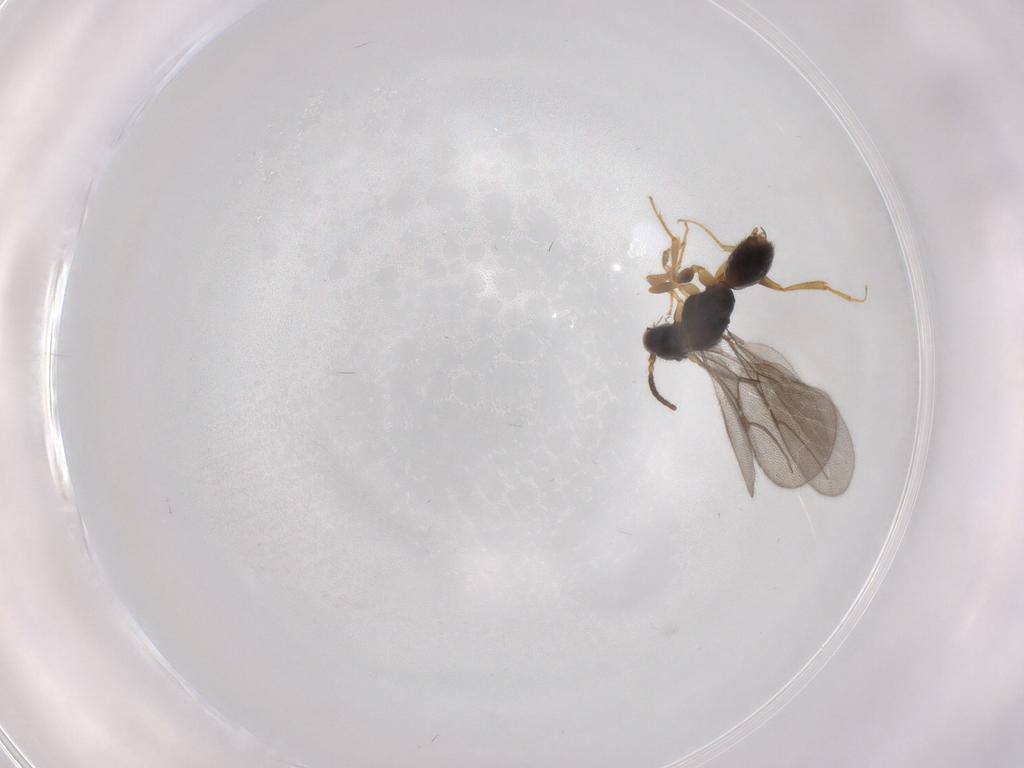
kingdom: Animalia
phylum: Arthropoda
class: Insecta
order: Hymenoptera
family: Bethylidae
